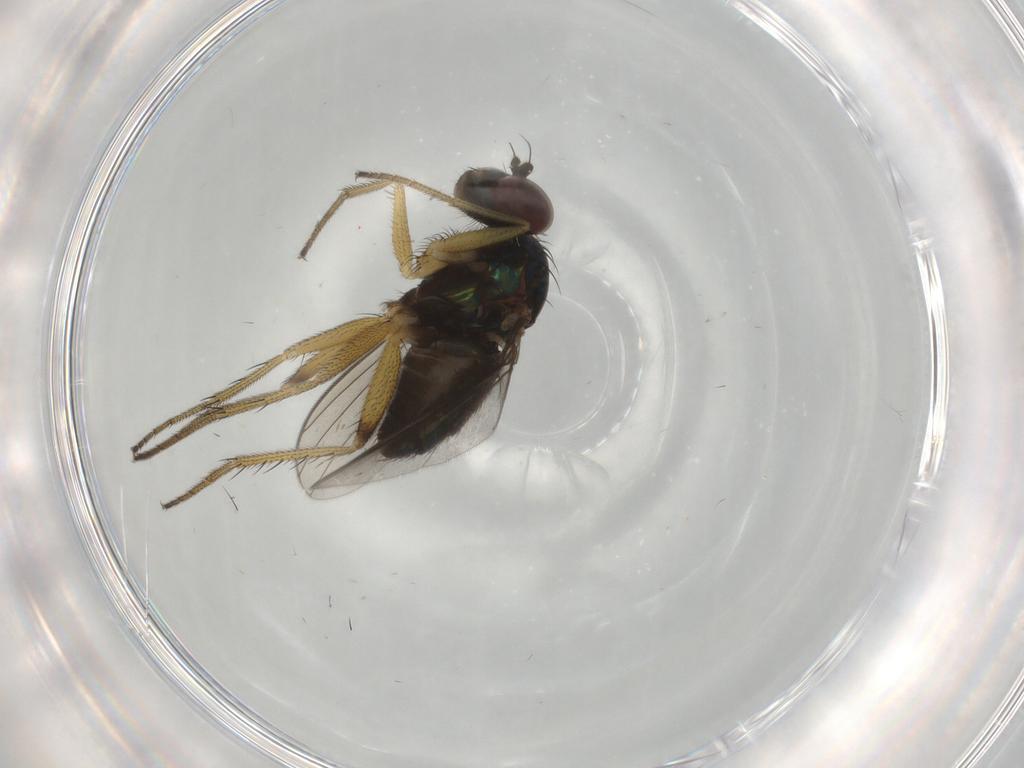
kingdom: Animalia
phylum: Arthropoda
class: Insecta
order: Diptera
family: Dolichopodidae
